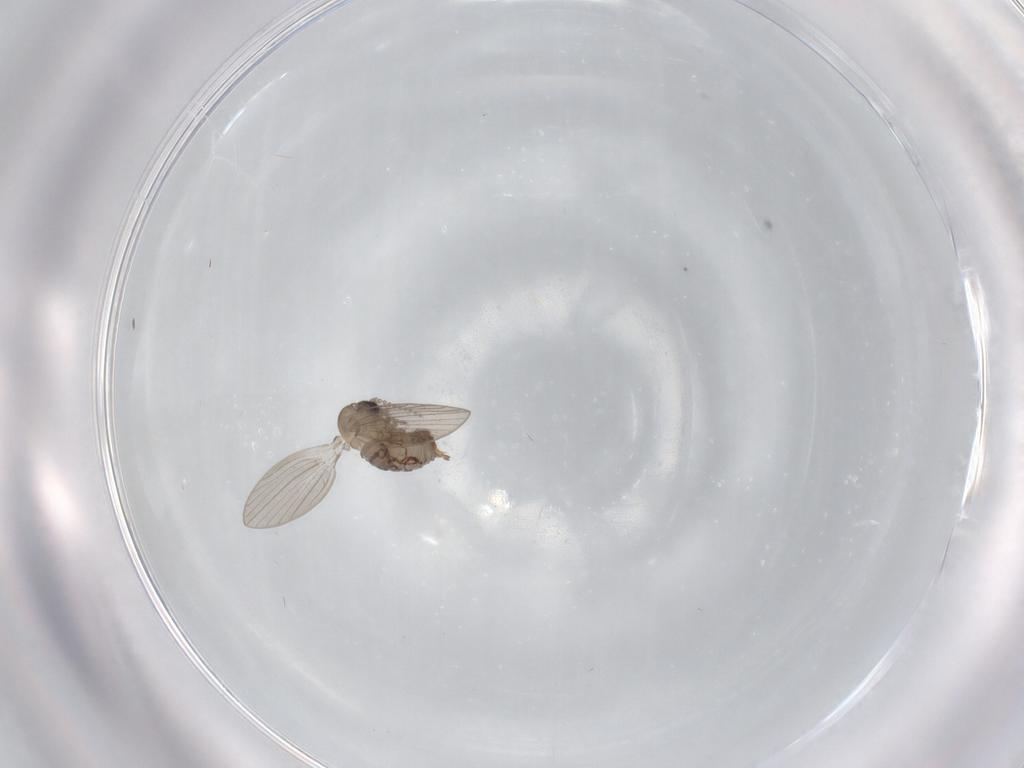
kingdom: Animalia
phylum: Arthropoda
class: Insecta
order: Diptera
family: Psychodidae
